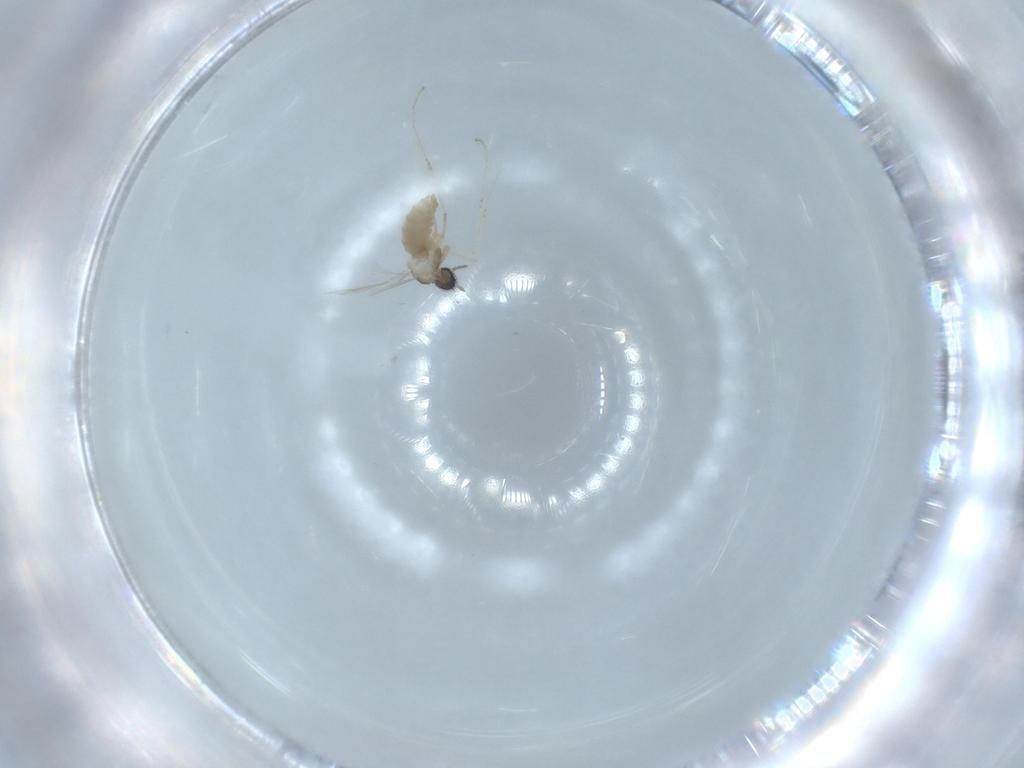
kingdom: Animalia
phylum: Arthropoda
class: Insecta
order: Diptera
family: Cecidomyiidae
